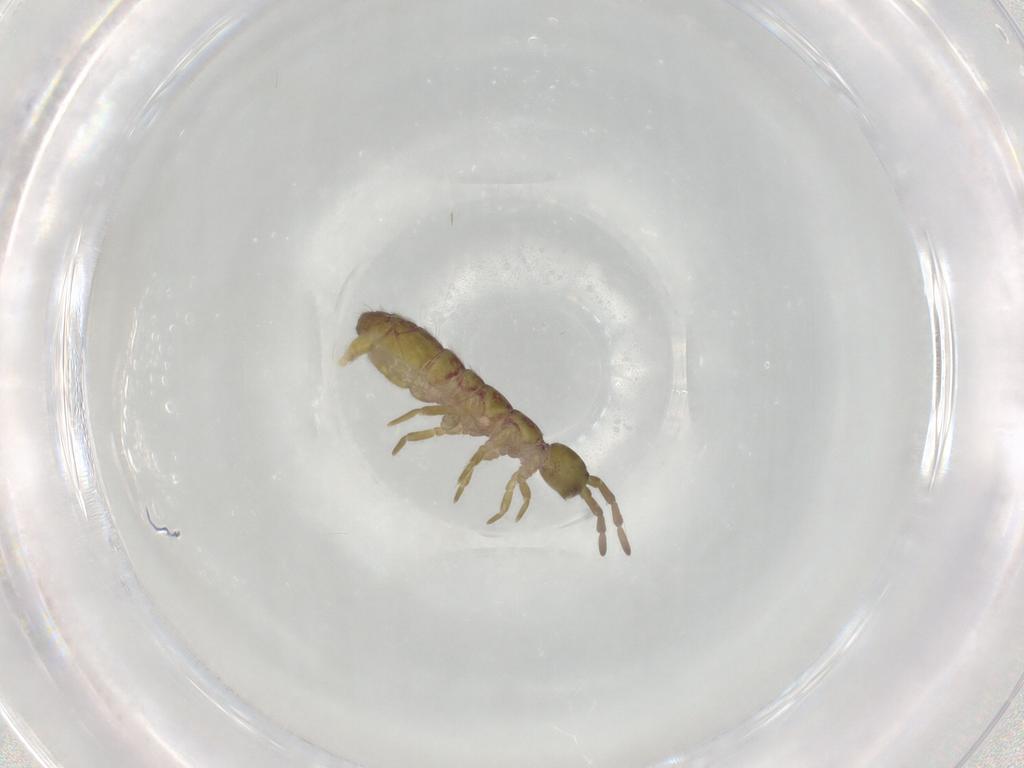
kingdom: Animalia
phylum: Arthropoda
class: Collembola
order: Entomobryomorpha
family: Isotomidae
